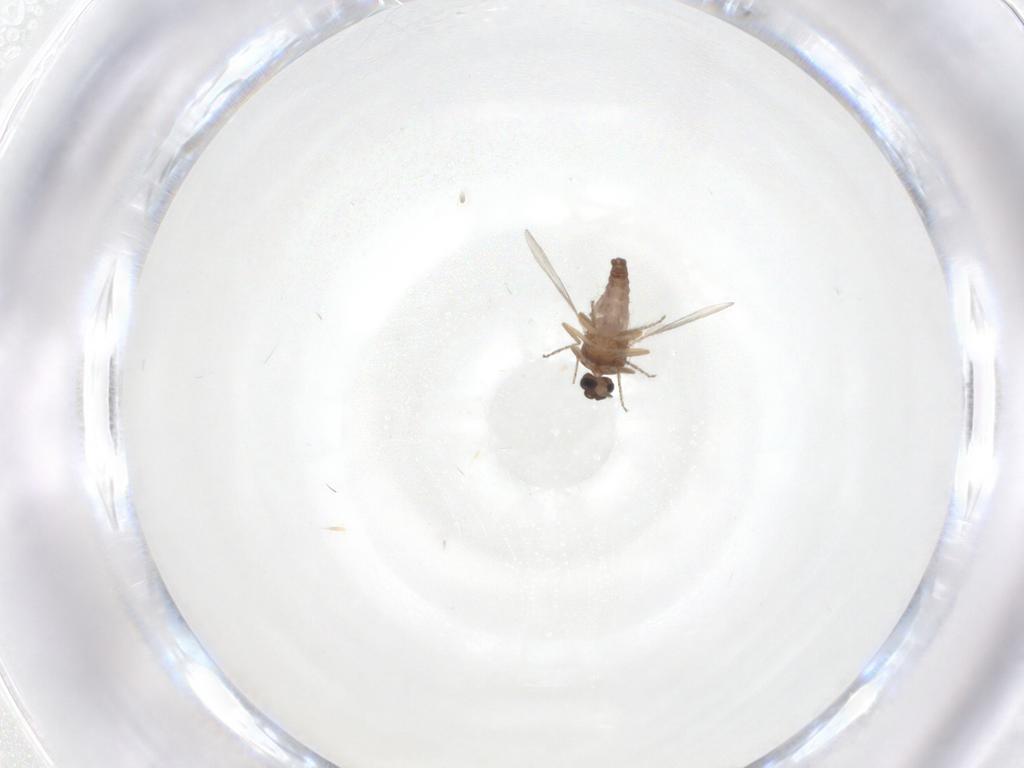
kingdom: Animalia
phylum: Arthropoda
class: Insecta
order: Diptera
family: Ceratopogonidae
